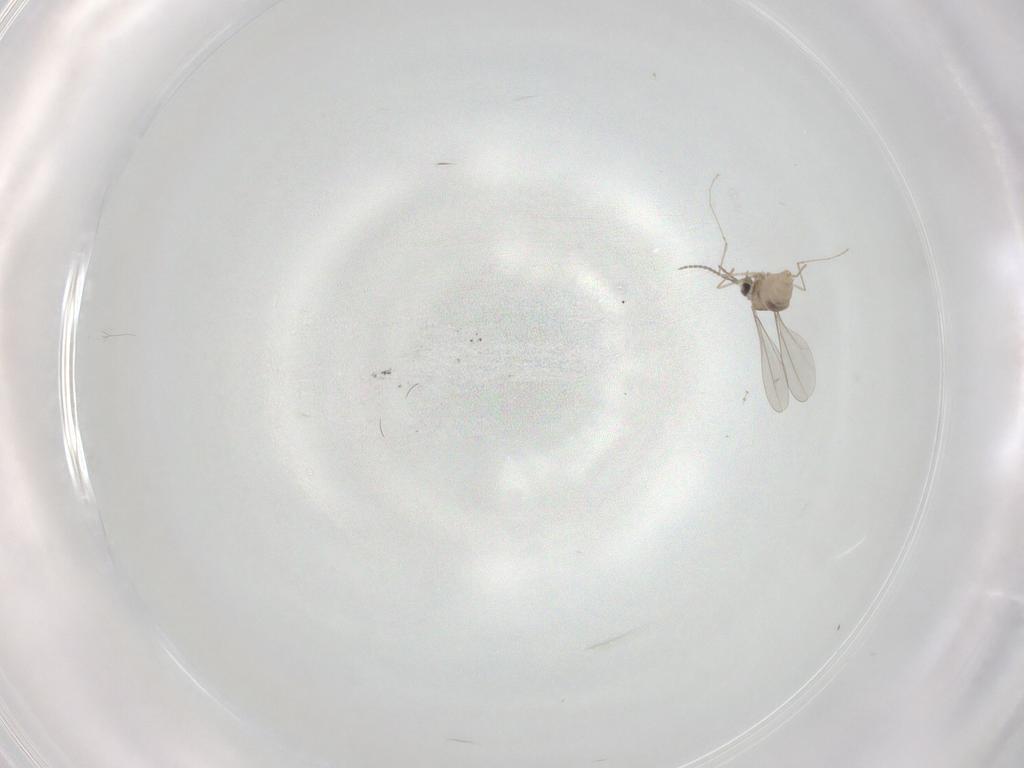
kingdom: Animalia
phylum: Arthropoda
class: Insecta
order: Diptera
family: Cecidomyiidae
